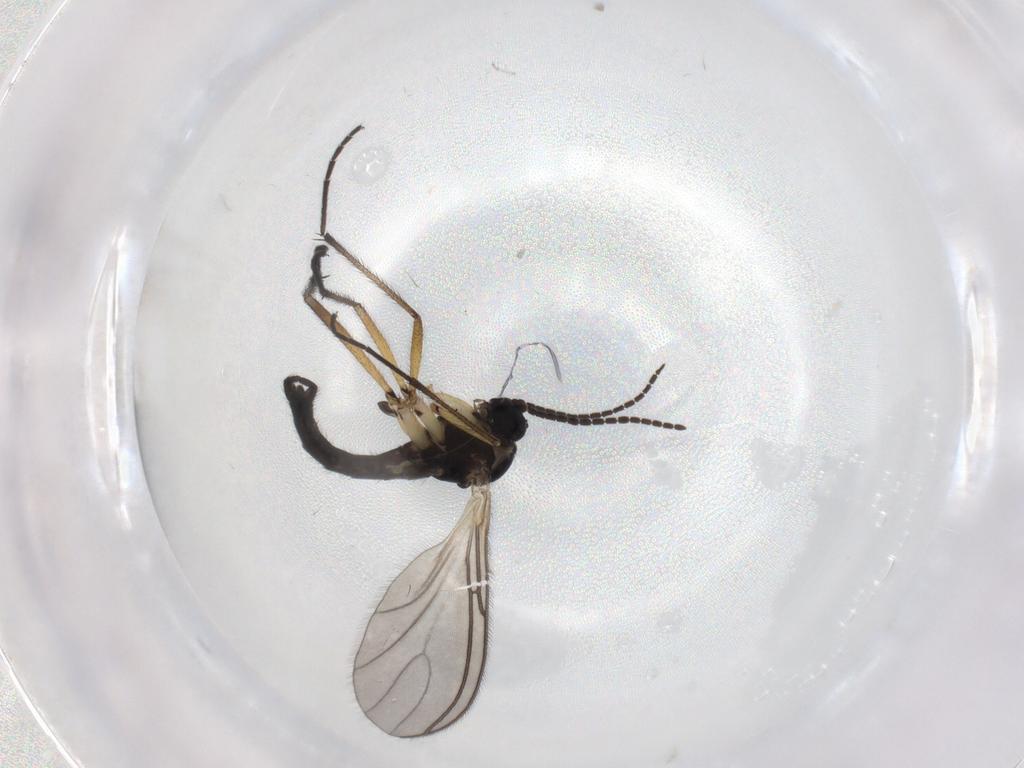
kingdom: Animalia
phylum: Arthropoda
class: Insecta
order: Diptera
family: Sciaridae
